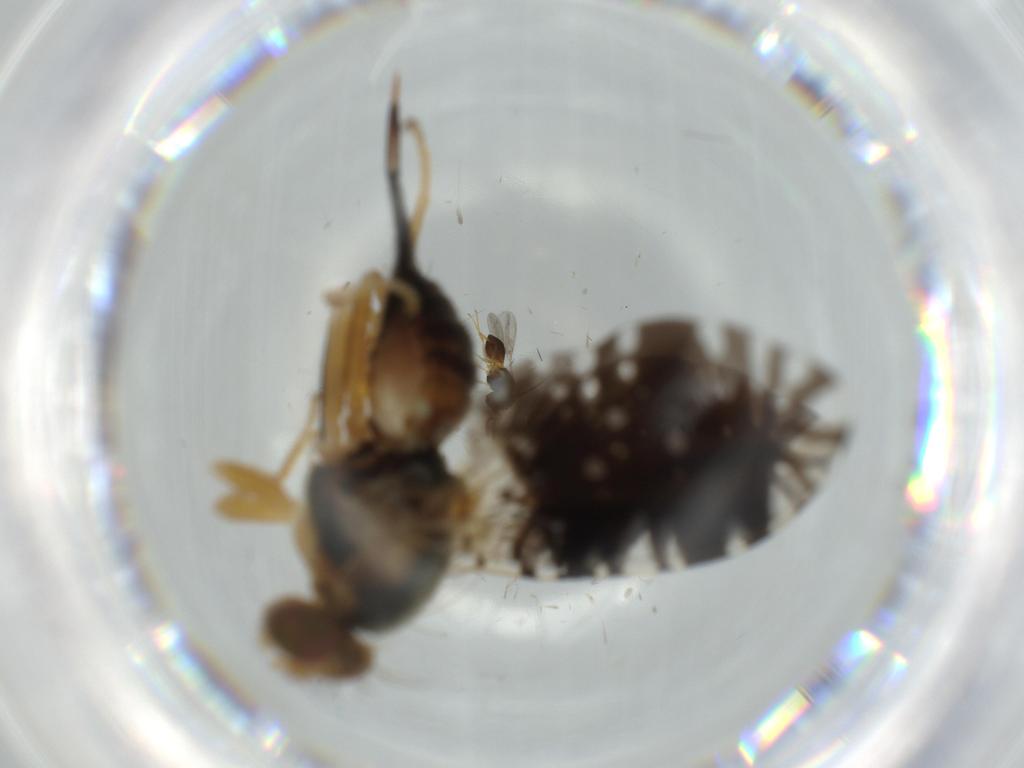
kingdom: Animalia
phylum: Arthropoda
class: Insecta
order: Diptera
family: Tephritidae
